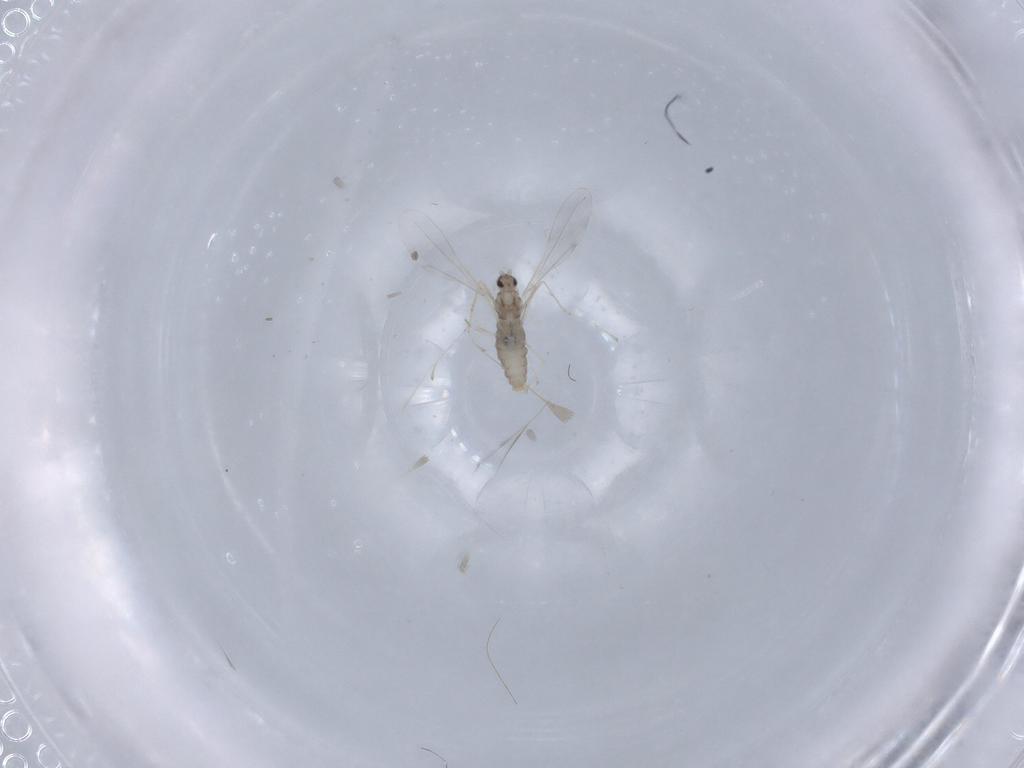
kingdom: Animalia
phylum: Arthropoda
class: Insecta
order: Diptera
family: Cecidomyiidae
